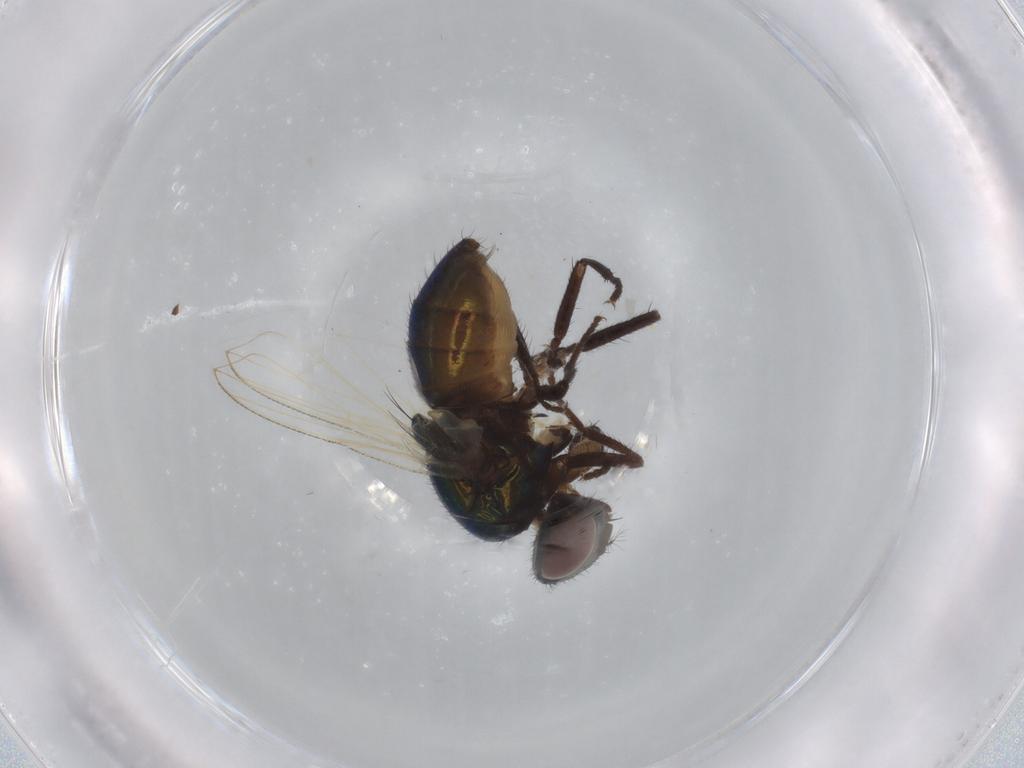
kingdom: Animalia
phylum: Arthropoda
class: Insecta
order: Diptera
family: Muscidae
